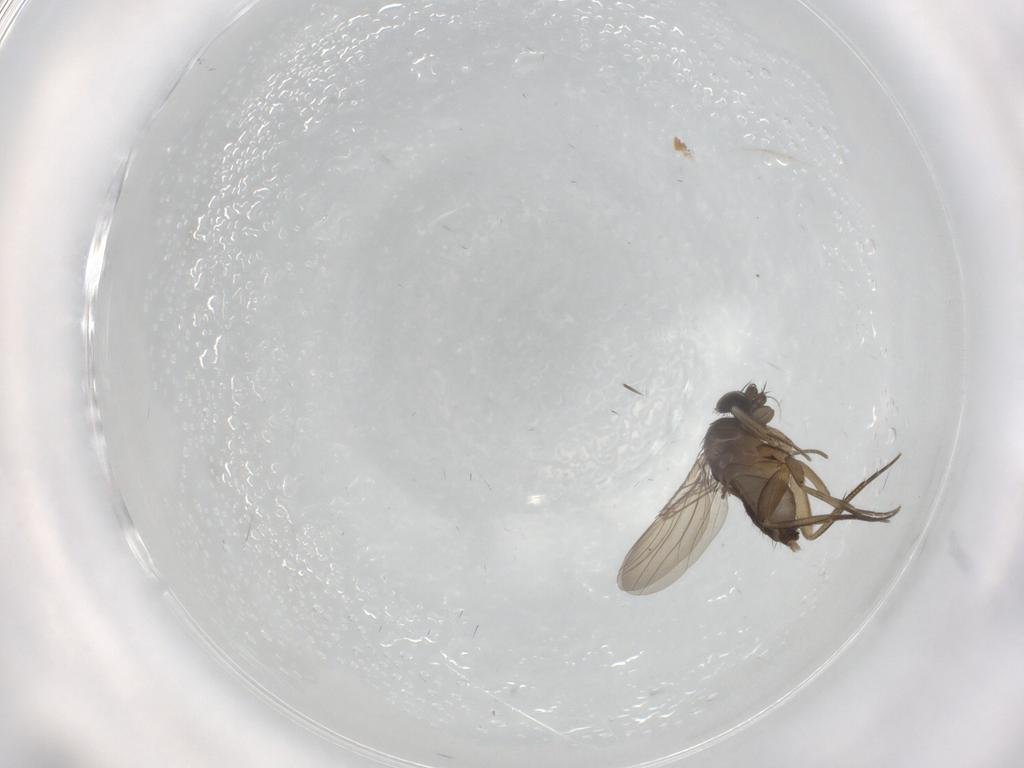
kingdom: Animalia
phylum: Arthropoda
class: Insecta
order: Diptera
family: Phoridae
